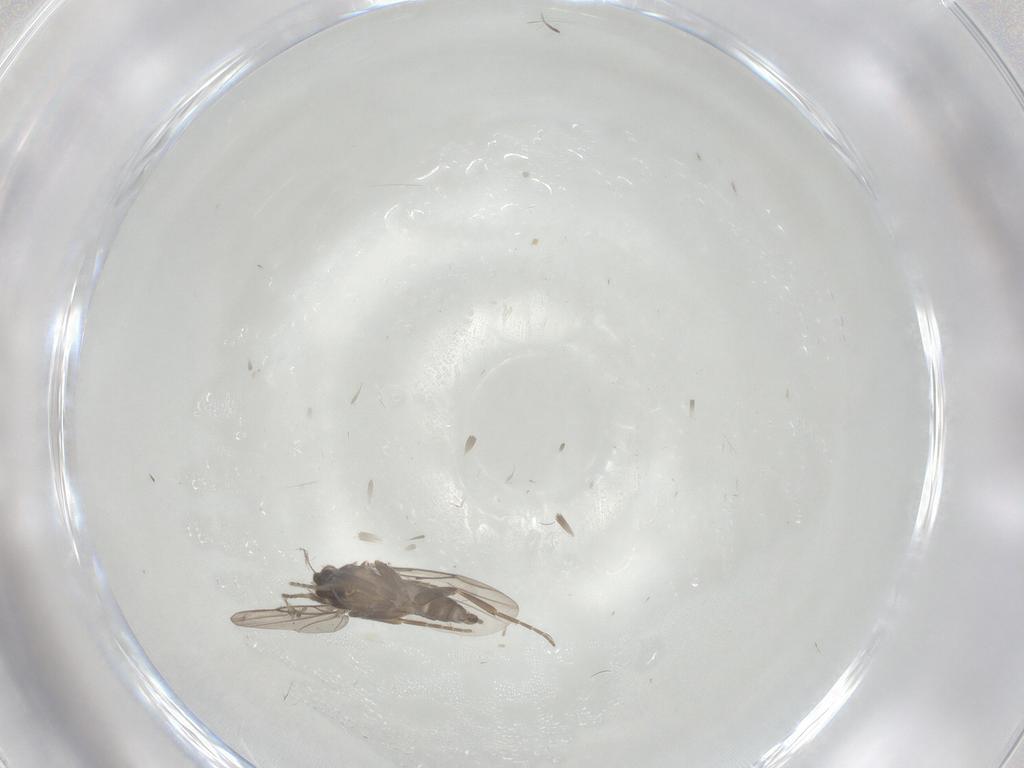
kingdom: Animalia
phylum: Arthropoda
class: Insecta
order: Diptera
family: Phoridae
